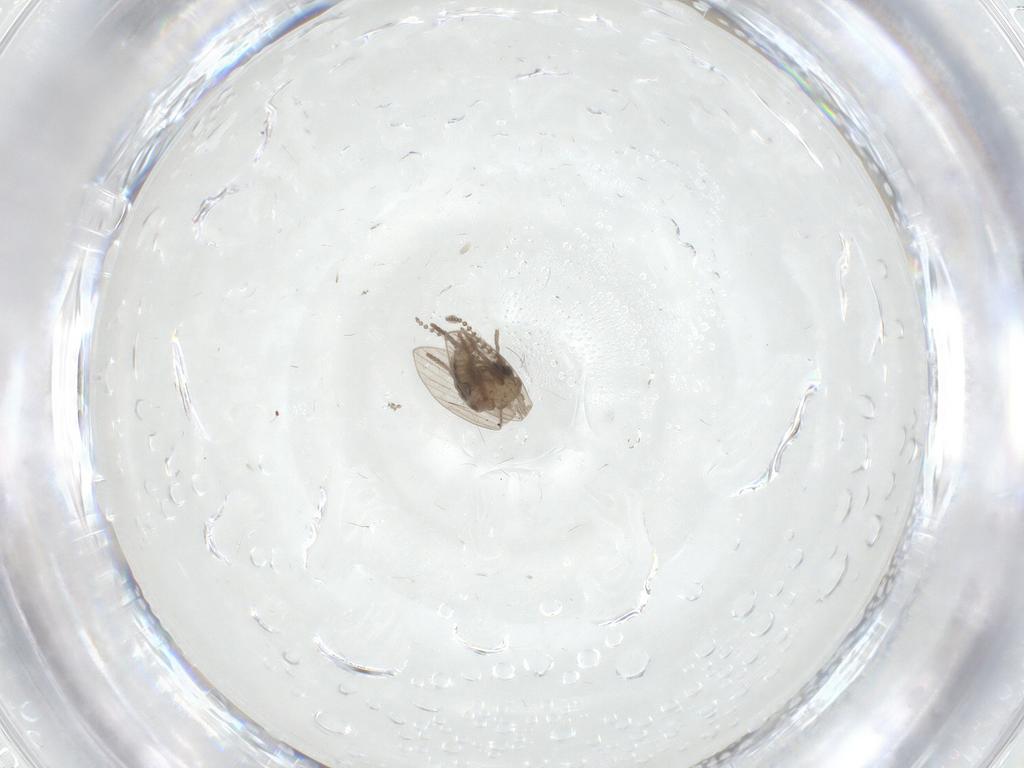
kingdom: Animalia
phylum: Arthropoda
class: Insecta
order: Diptera
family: Psychodidae
